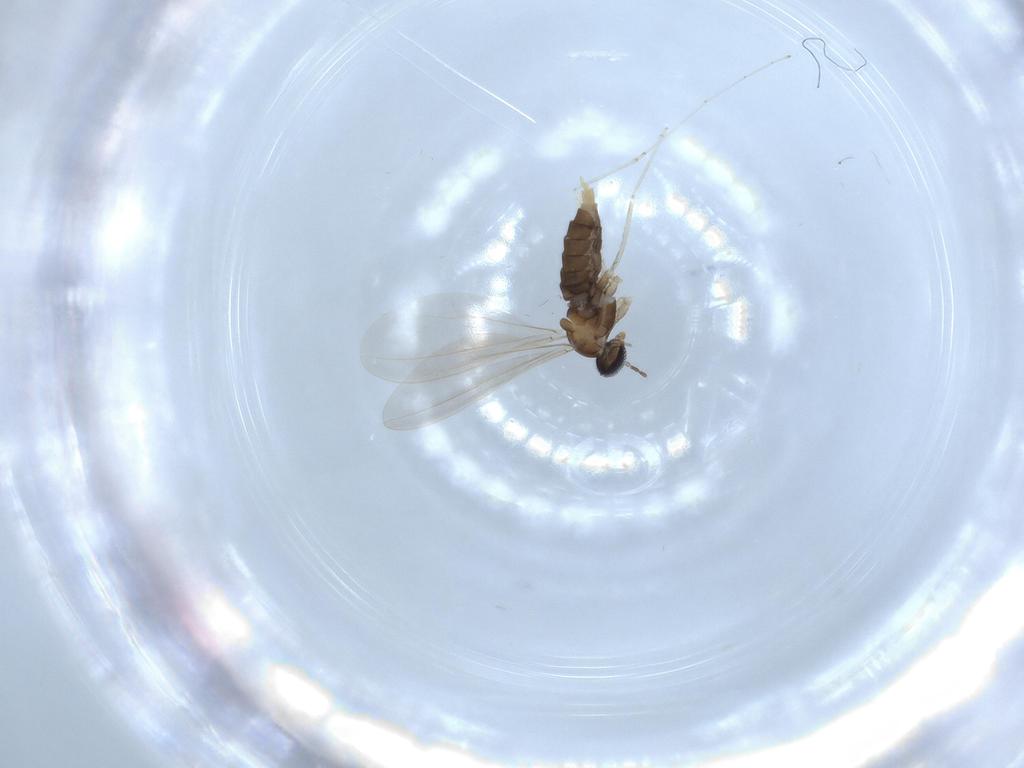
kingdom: Animalia
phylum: Arthropoda
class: Insecta
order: Diptera
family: Cecidomyiidae
